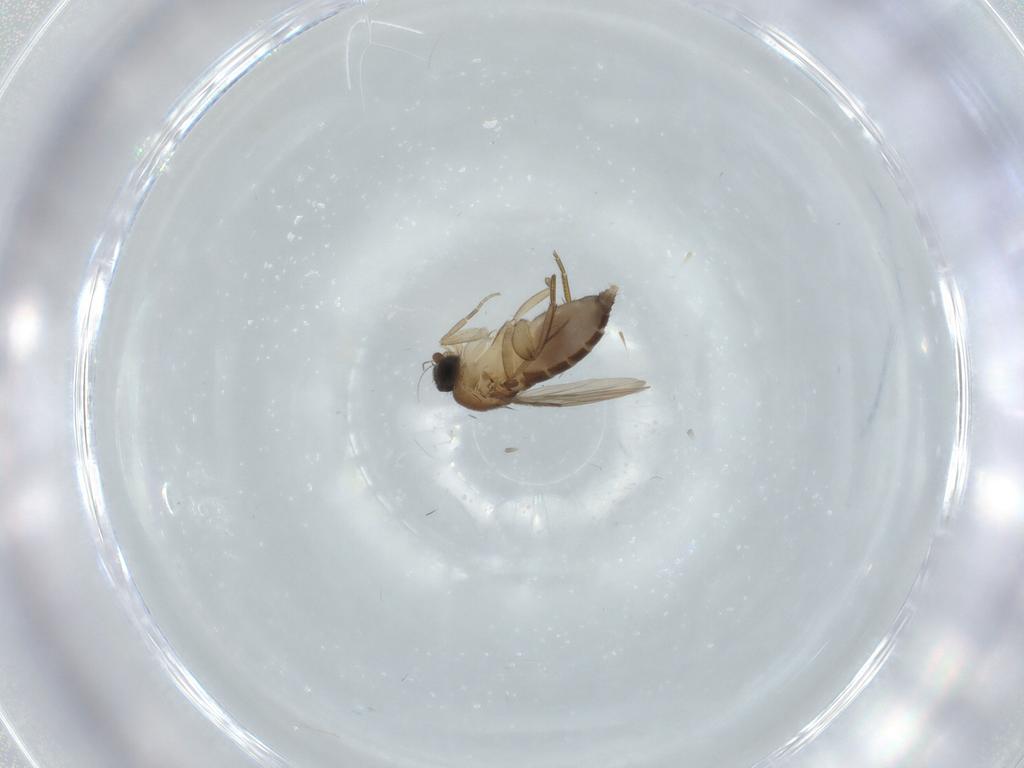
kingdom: Animalia
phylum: Arthropoda
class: Insecta
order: Diptera
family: Phoridae
